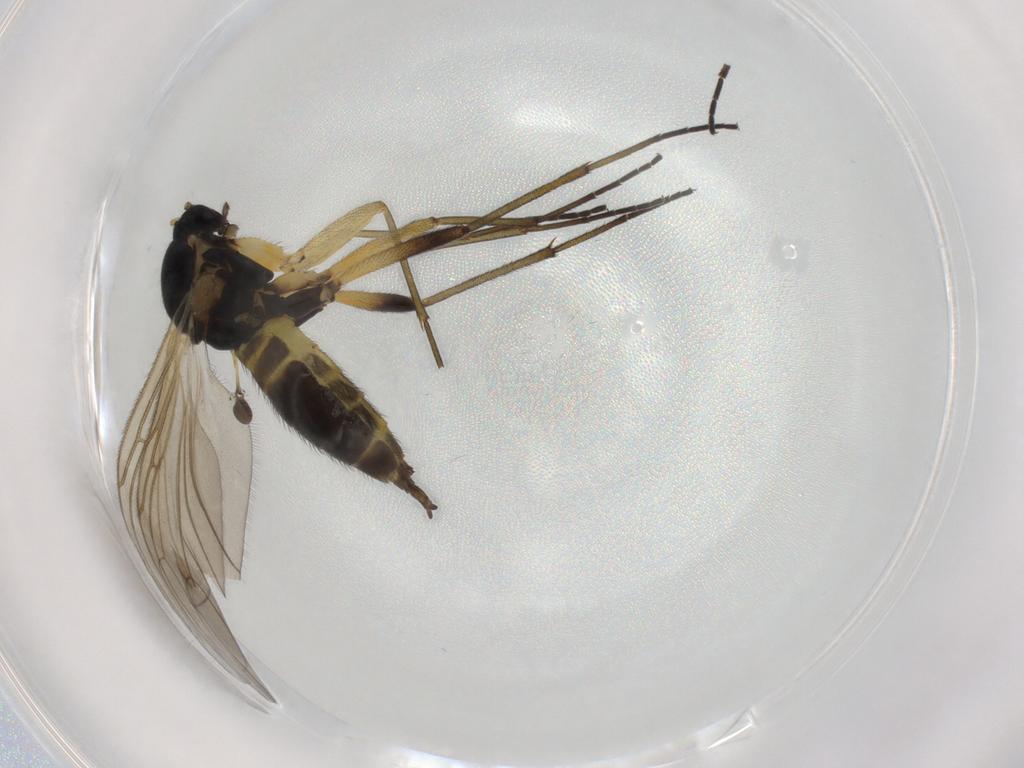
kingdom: Animalia
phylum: Arthropoda
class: Insecta
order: Diptera
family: Sciaridae
